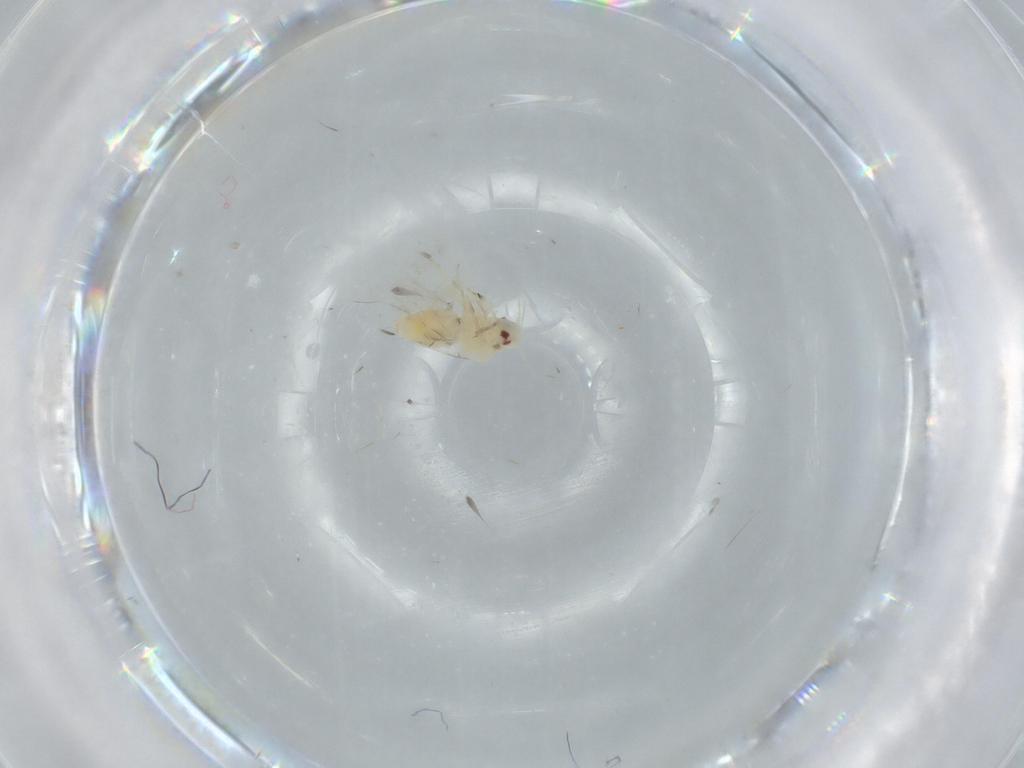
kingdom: Animalia
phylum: Arthropoda
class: Insecta
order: Hemiptera
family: Aleyrodidae
